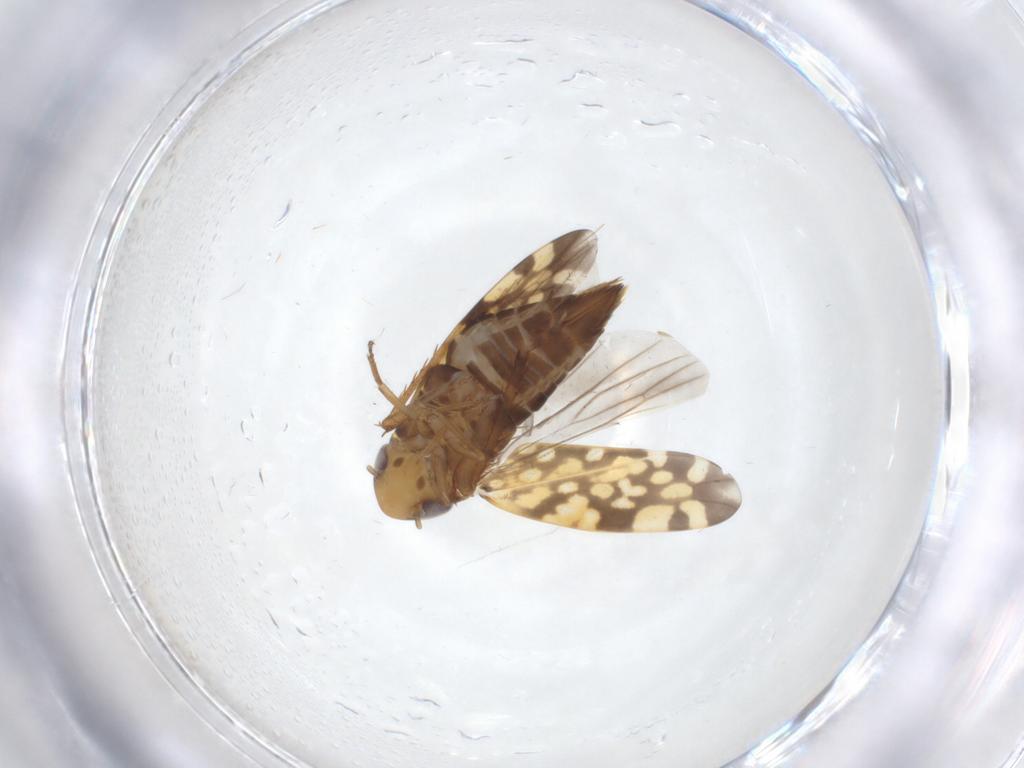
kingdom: Animalia
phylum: Arthropoda
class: Insecta
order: Hemiptera
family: Cicadellidae
